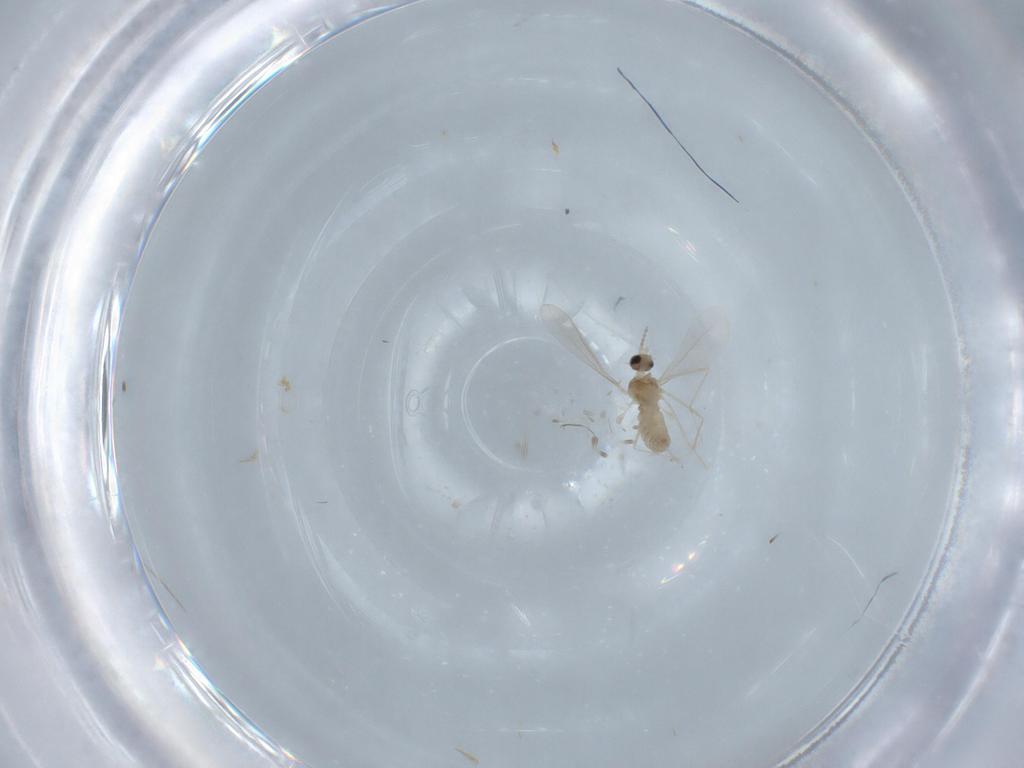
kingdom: Animalia
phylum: Arthropoda
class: Insecta
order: Diptera
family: Cecidomyiidae
